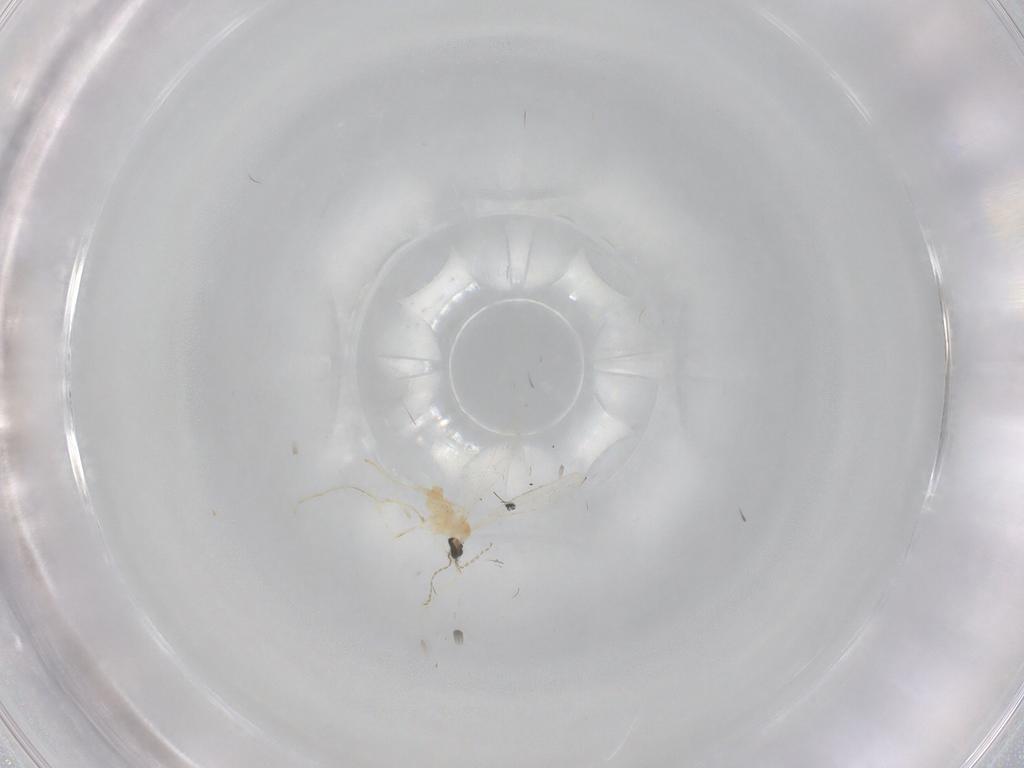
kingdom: Animalia
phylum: Arthropoda
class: Insecta
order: Diptera
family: Cecidomyiidae
